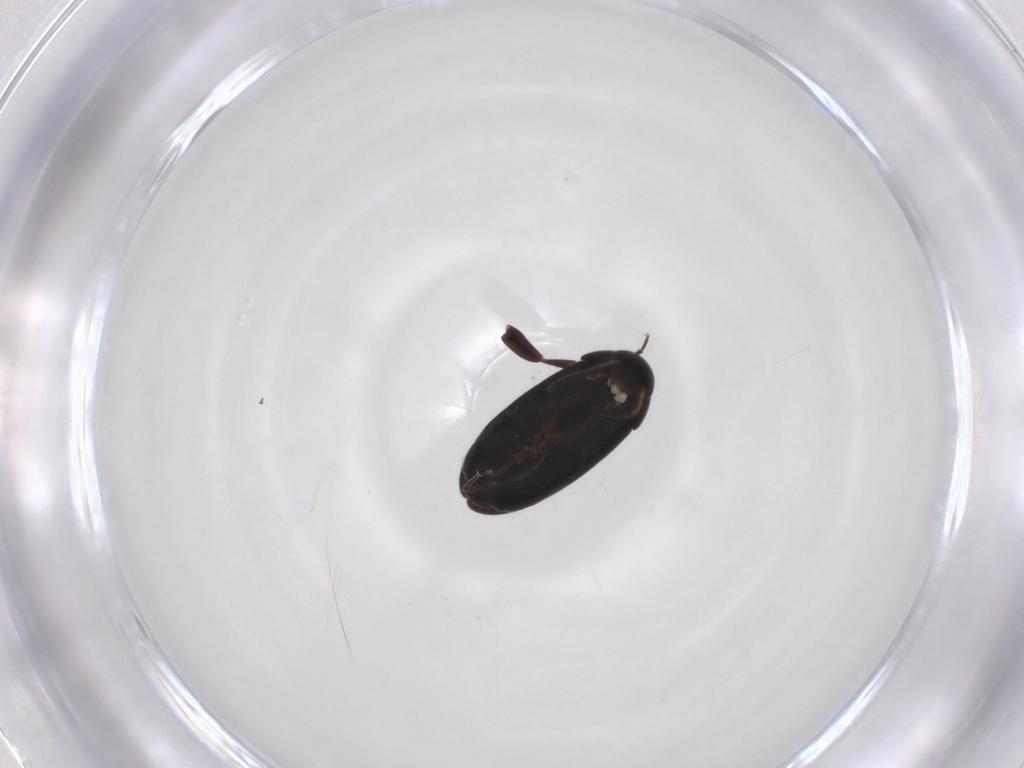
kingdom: Animalia
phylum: Arthropoda
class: Insecta
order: Coleoptera
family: Scraptiidae
